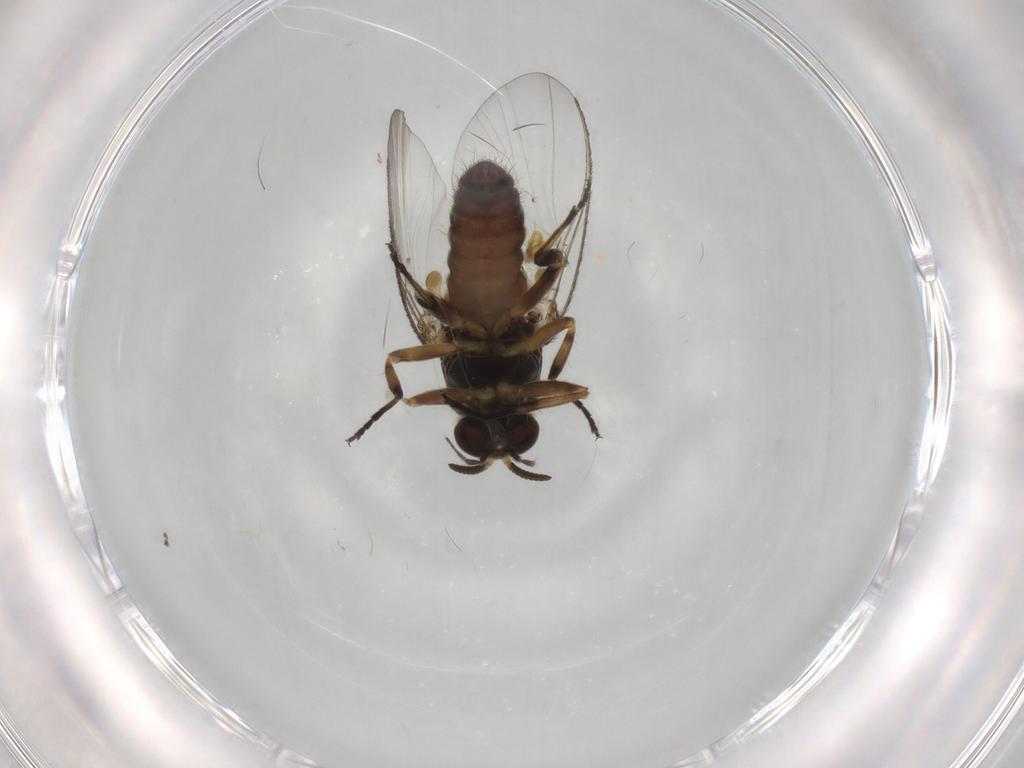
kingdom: Animalia
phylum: Arthropoda
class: Insecta
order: Diptera
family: Simuliidae
